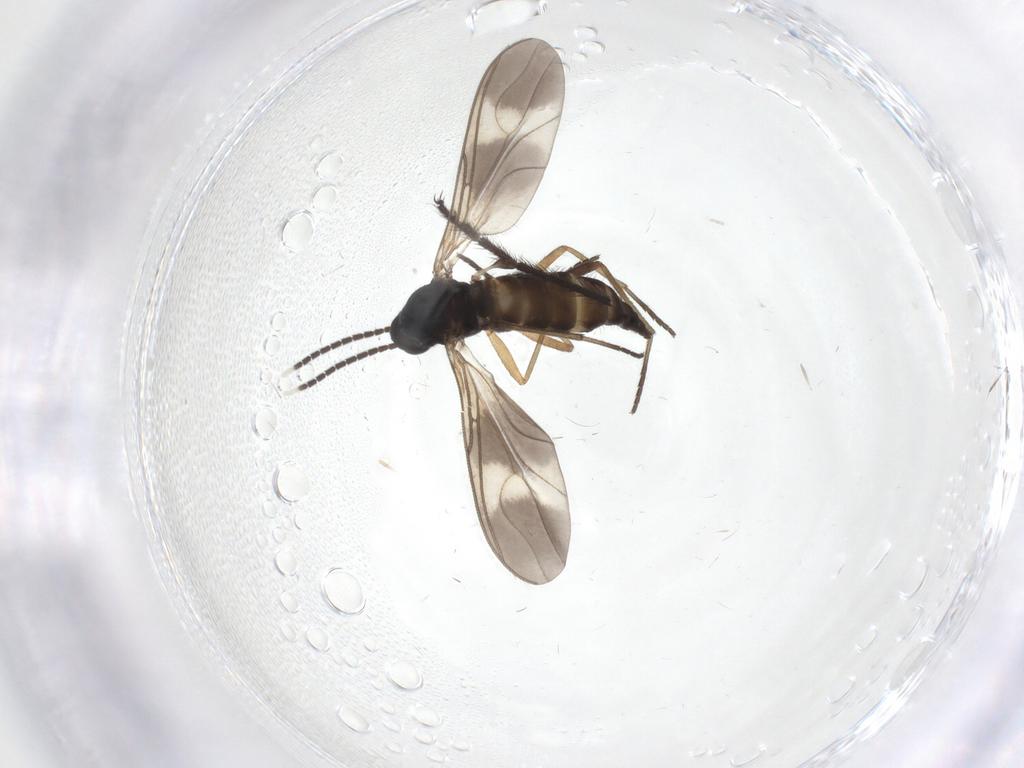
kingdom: Animalia
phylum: Arthropoda
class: Insecta
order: Diptera
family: Sciaridae
